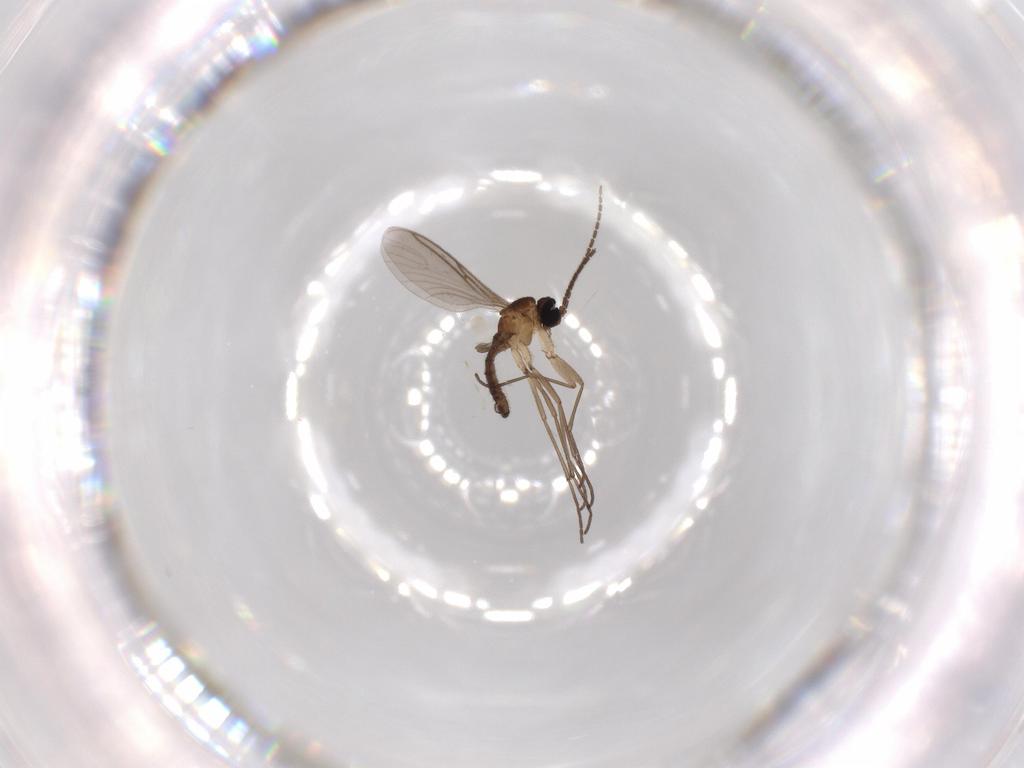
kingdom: Animalia
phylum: Arthropoda
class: Insecta
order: Diptera
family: Sciaridae
